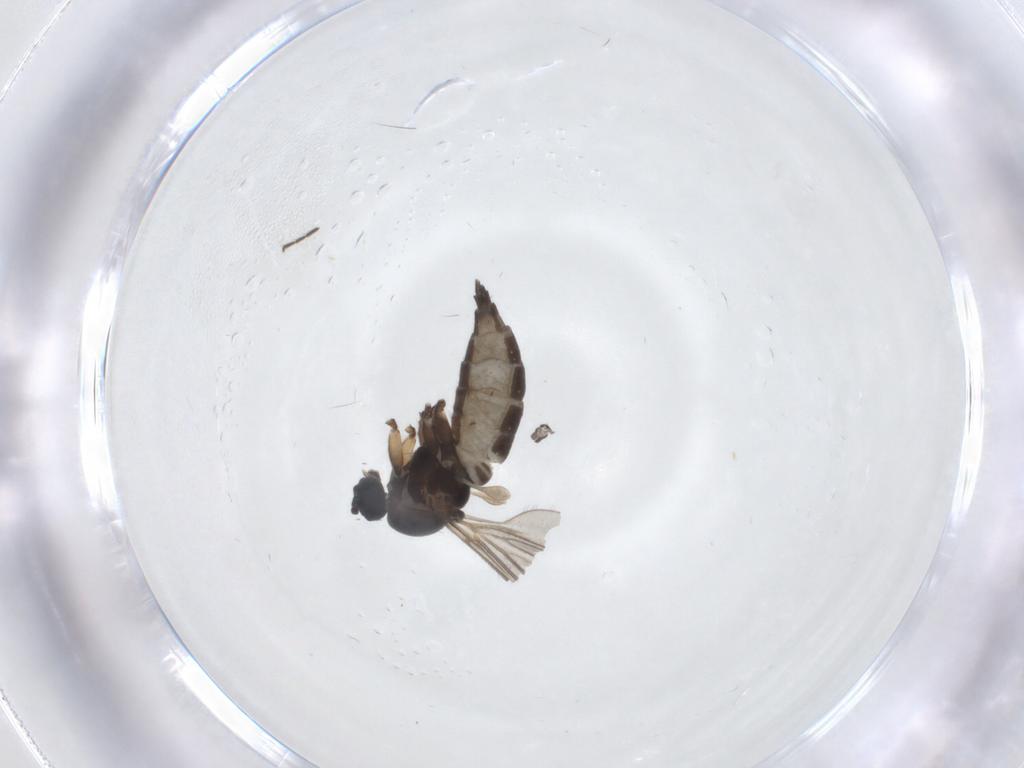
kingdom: Animalia
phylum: Arthropoda
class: Insecta
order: Diptera
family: Sciaridae
